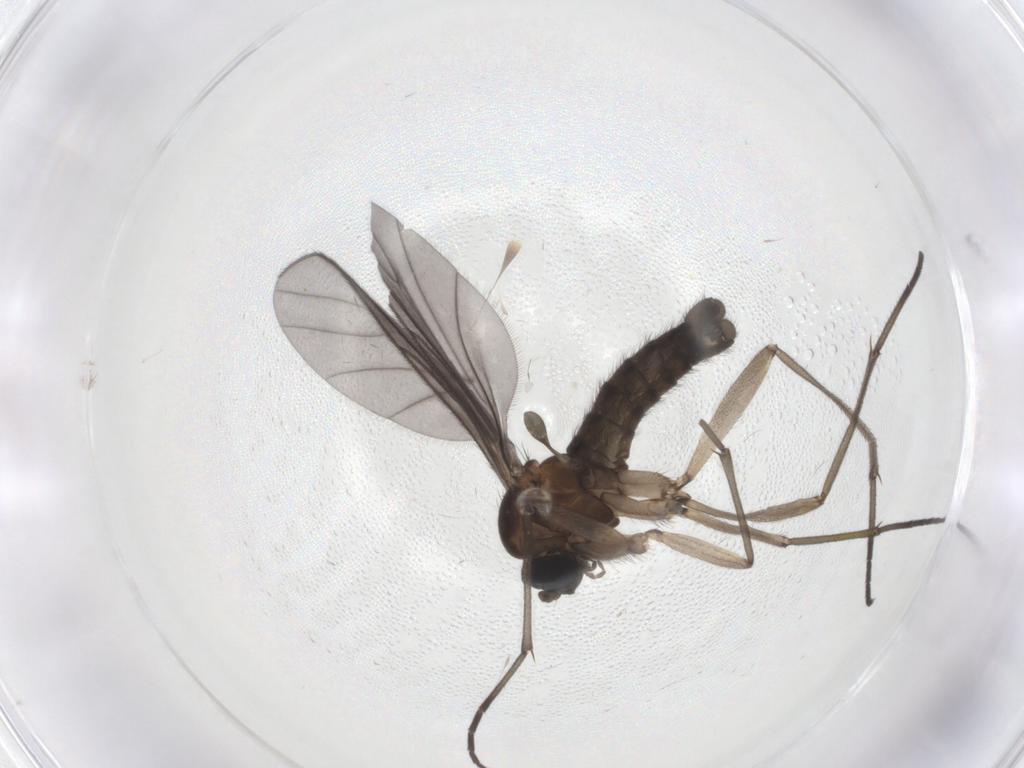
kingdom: Animalia
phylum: Arthropoda
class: Insecta
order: Diptera
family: Sciaridae
